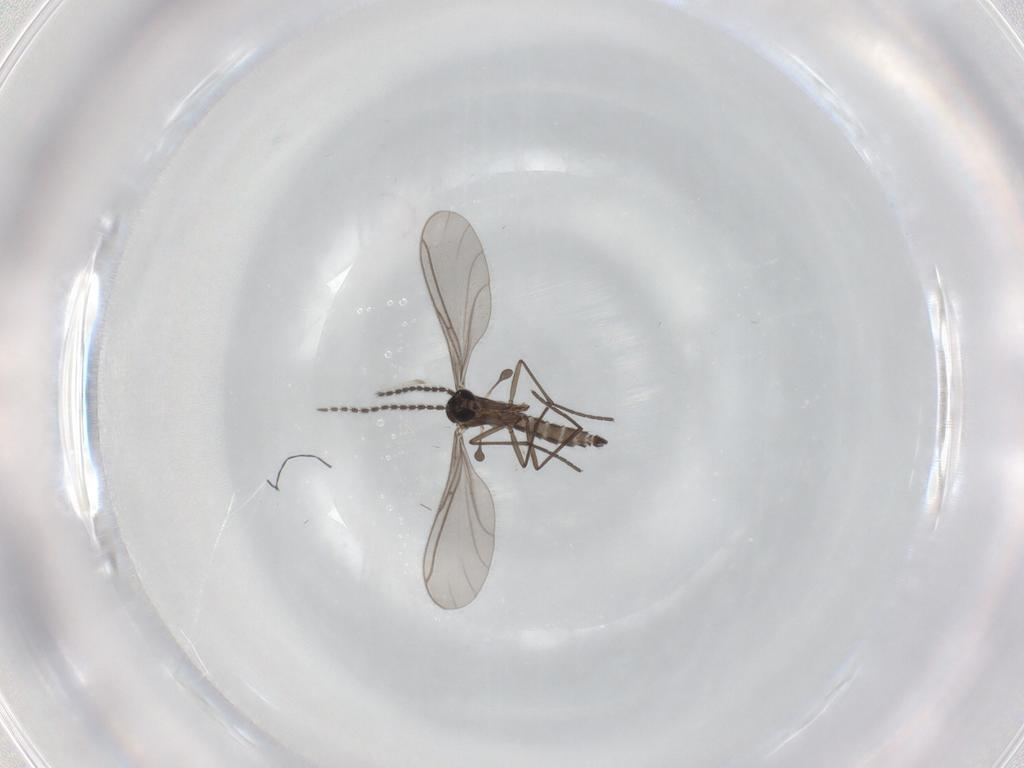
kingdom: Animalia
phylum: Arthropoda
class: Insecta
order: Diptera
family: Sciaridae
